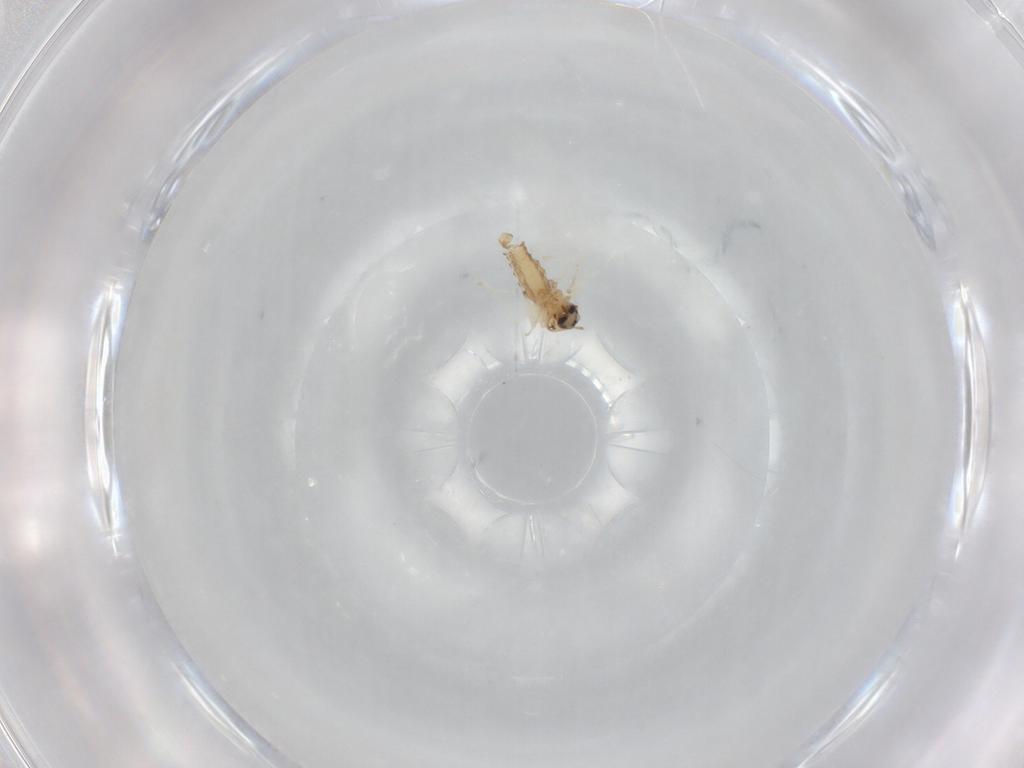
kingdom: Animalia
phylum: Arthropoda
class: Insecta
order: Diptera
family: Ceratopogonidae
